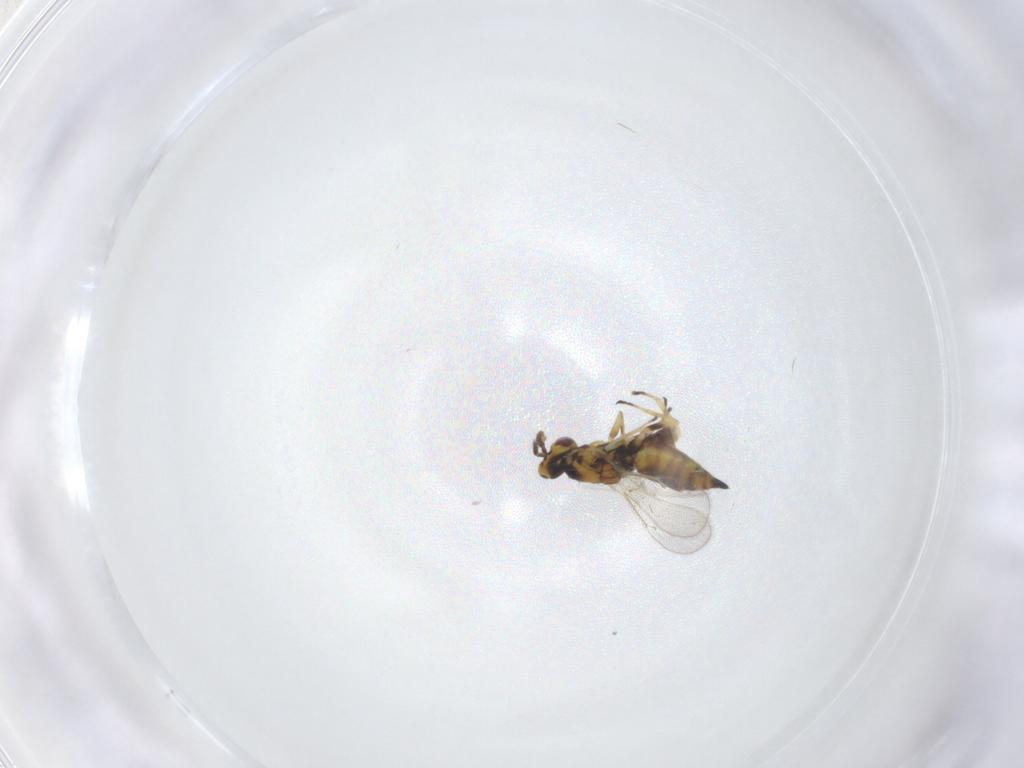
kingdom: Animalia
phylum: Arthropoda
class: Insecta
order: Hymenoptera
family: Eulophidae
